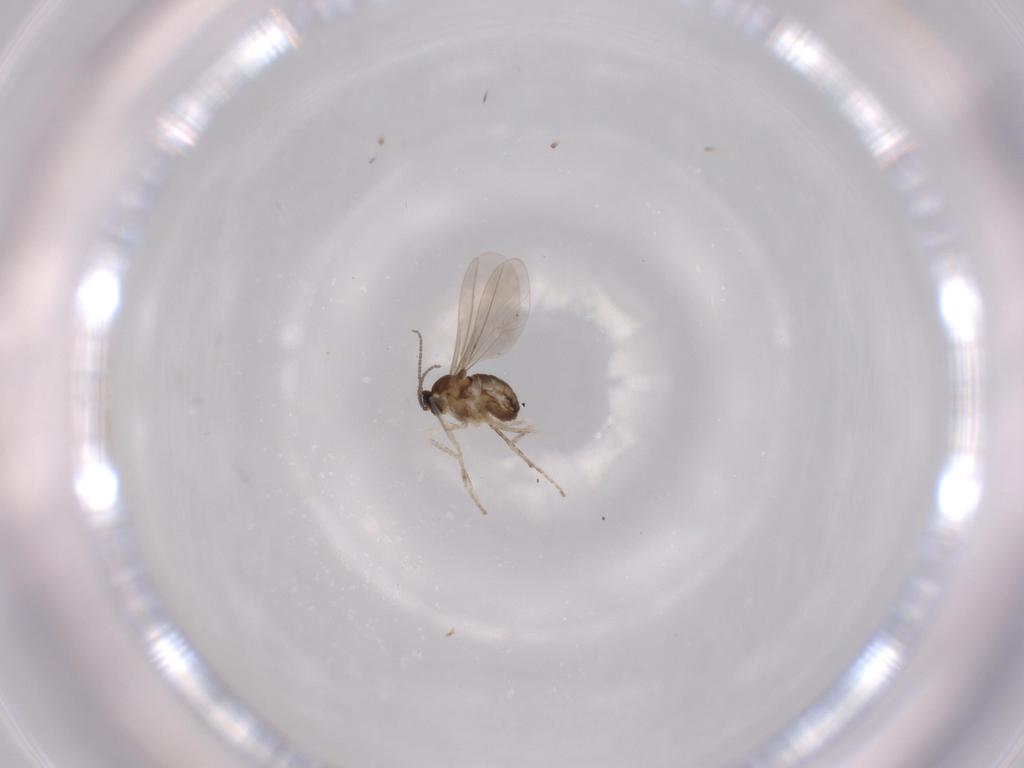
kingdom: Animalia
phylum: Arthropoda
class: Insecta
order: Diptera
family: Cecidomyiidae
